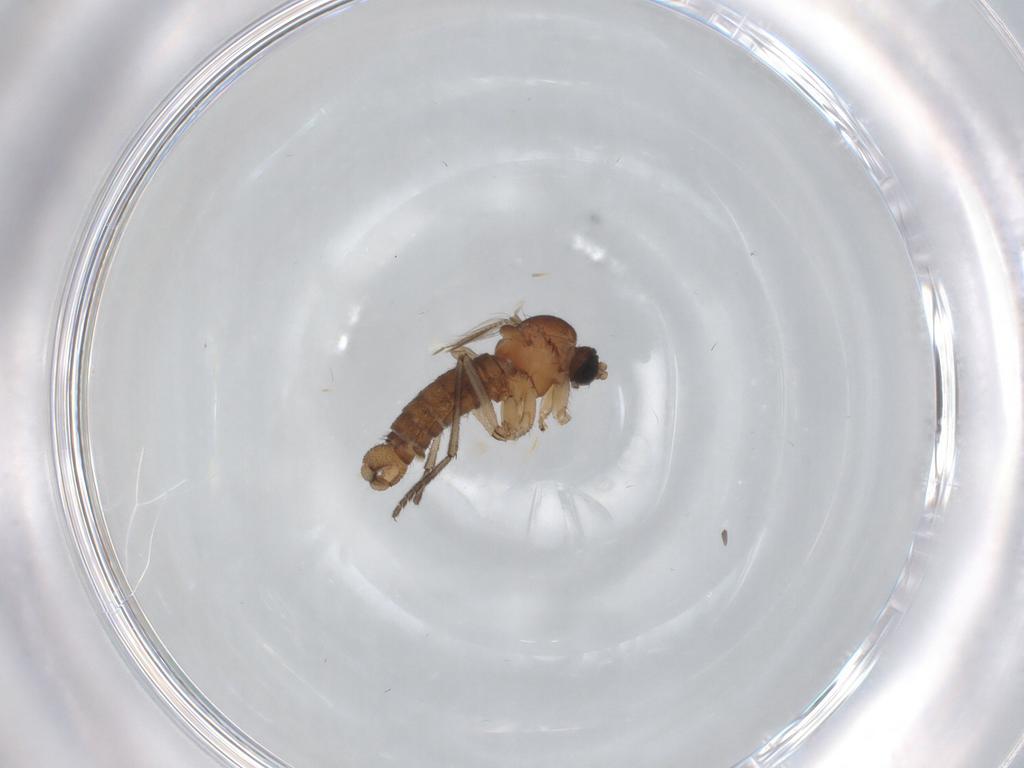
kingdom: Animalia
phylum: Arthropoda
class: Insecta
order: Diptera
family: Sciaridae
